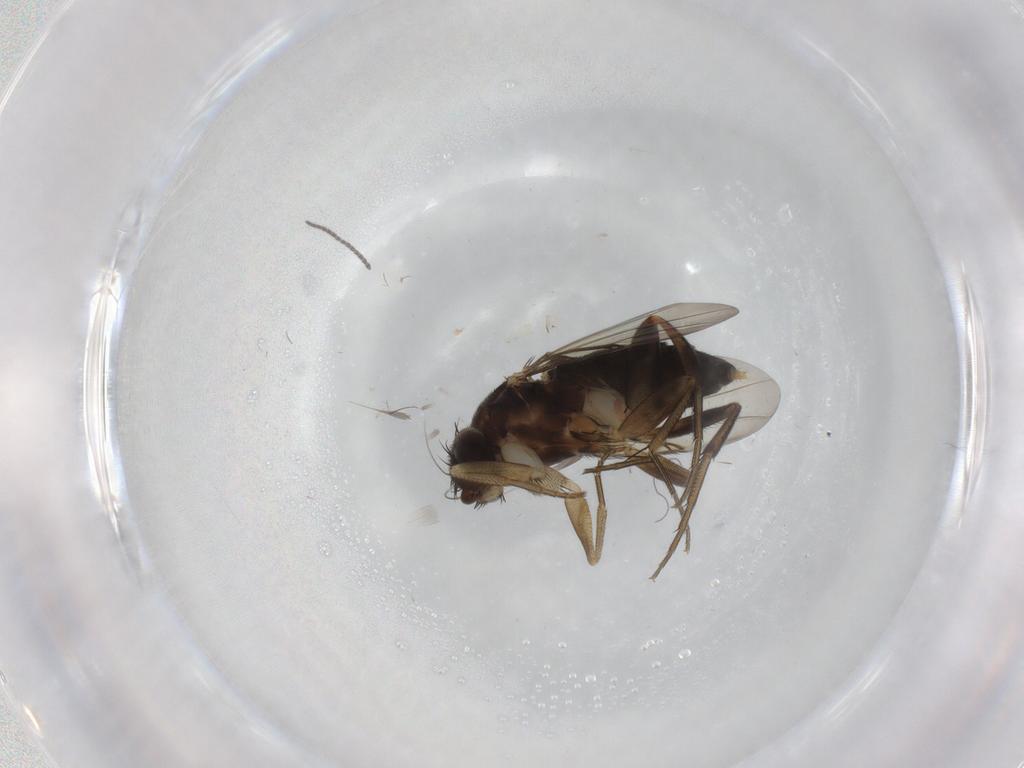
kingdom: Animalia
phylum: Arthropoda
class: Insecta
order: Diptera
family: Phoridae
